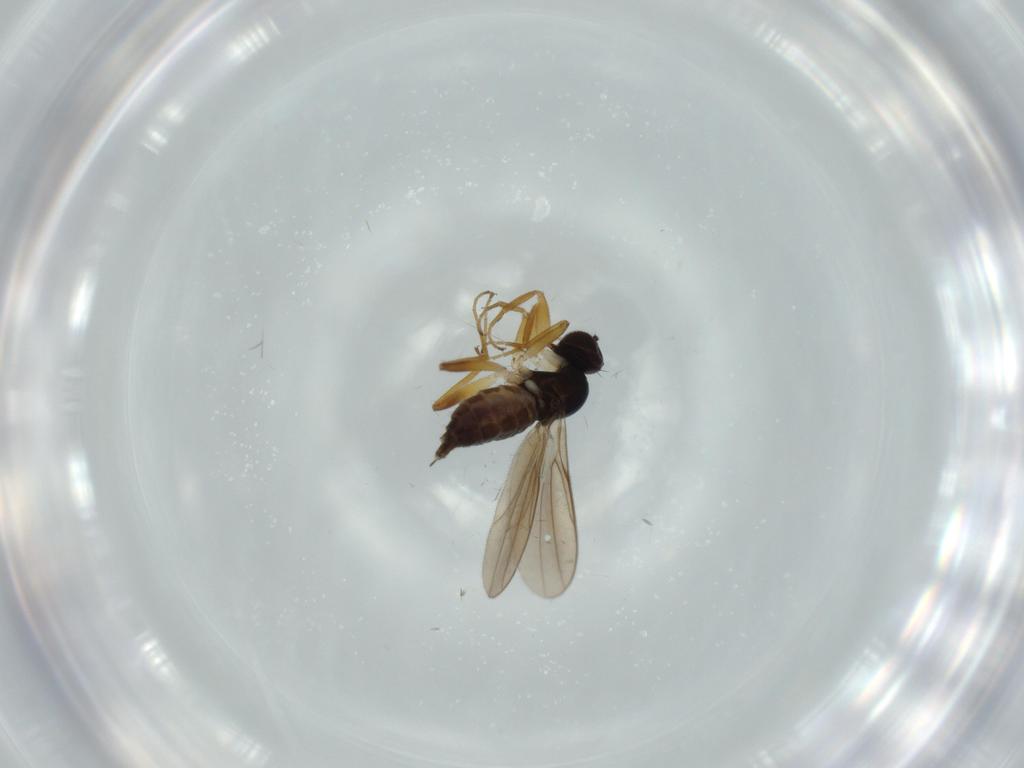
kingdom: Animalia
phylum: Arthropoda
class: Insecta
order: Diptera
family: Hybotidae
